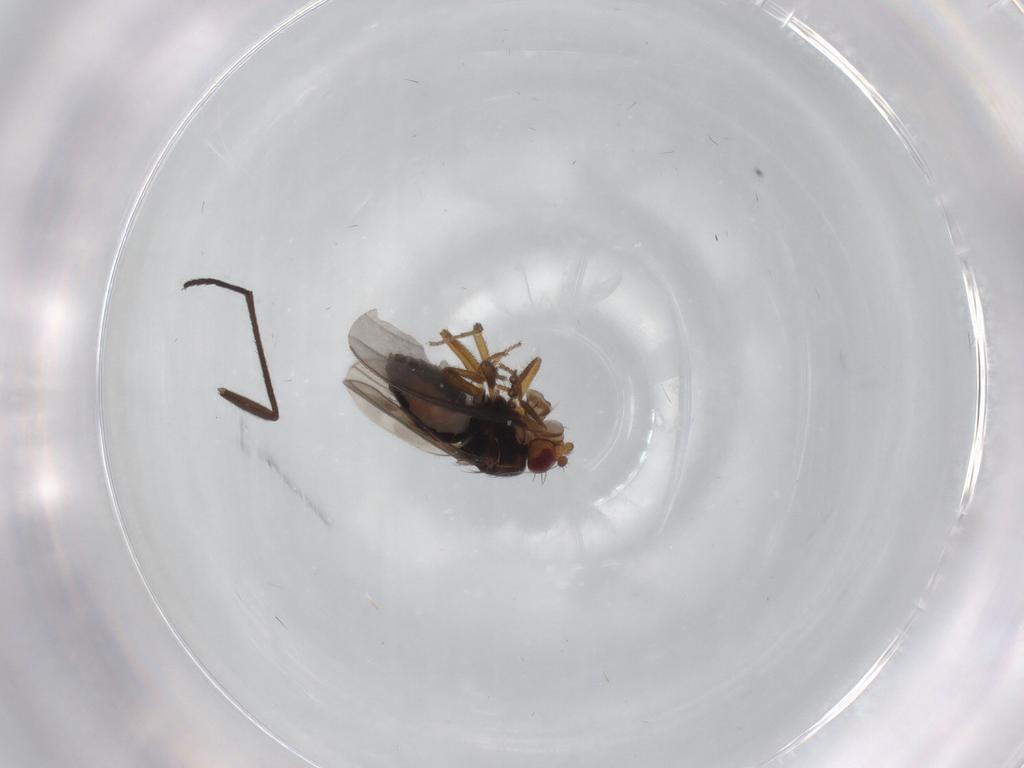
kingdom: Animalia
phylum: Arthropoda
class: Insecta
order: Diptera
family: Sphaeroceridae
